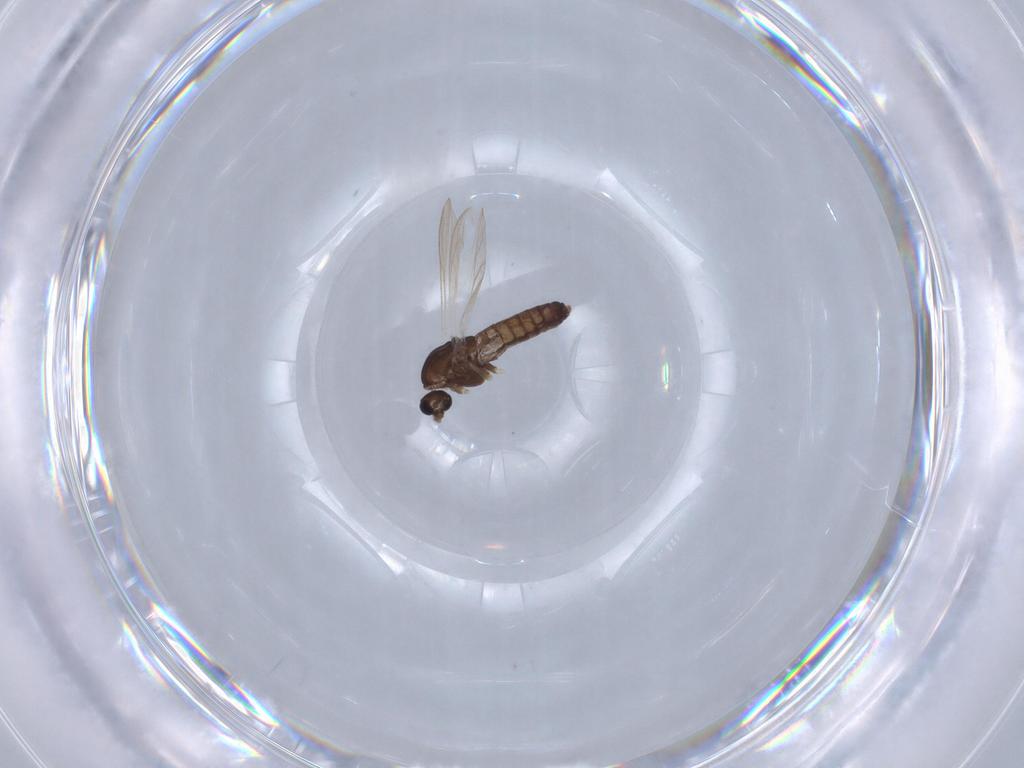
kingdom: Animalia
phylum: Arthropoda
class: Insecta
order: Diptera
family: Chironomidae
